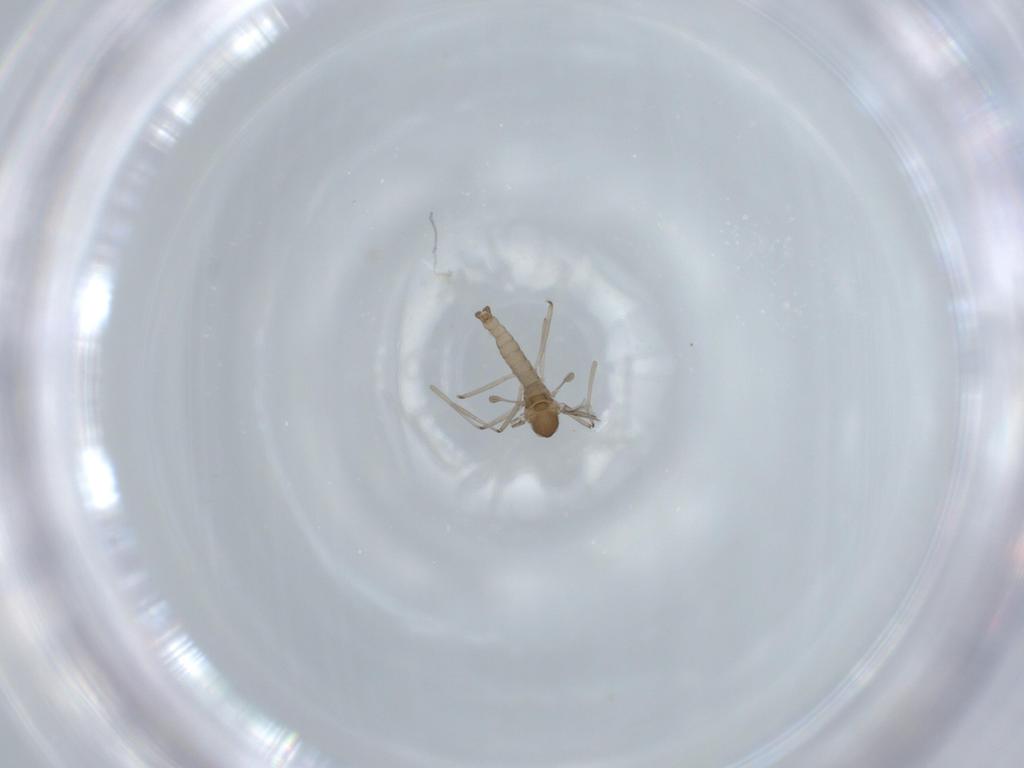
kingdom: Animalia
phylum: Arthropoda
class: Insecta
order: Diptera
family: Cecidomyiidae
